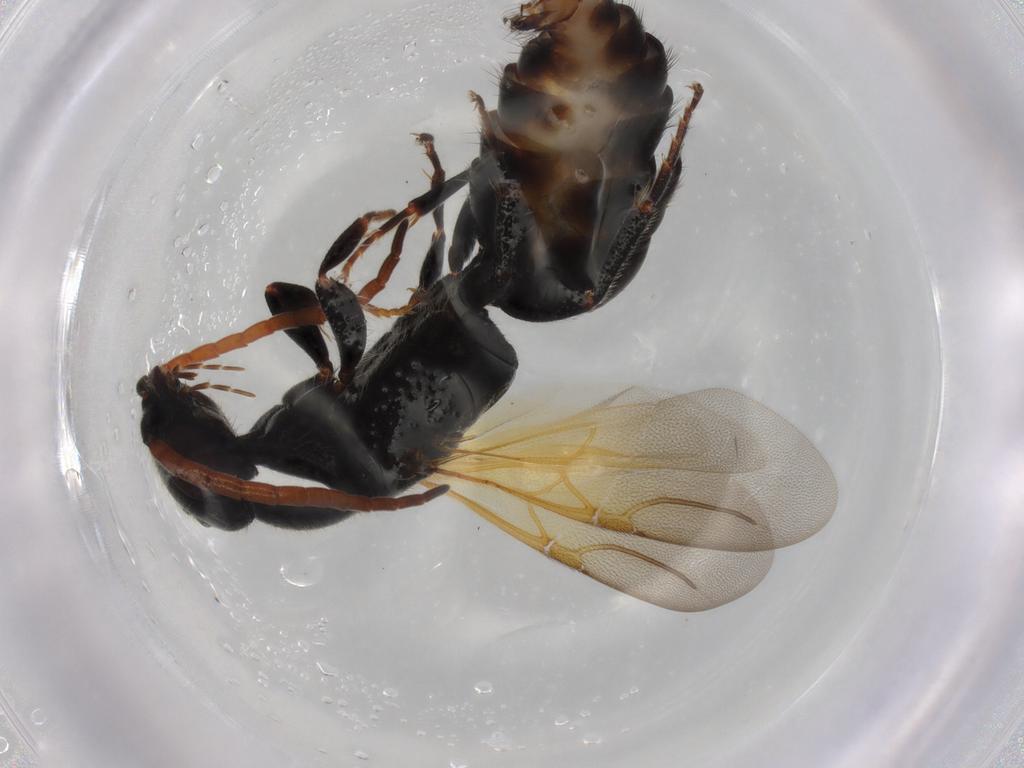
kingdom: Animalia
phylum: Arthropoda
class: Insecta
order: Hymenoptera
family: Bethylidae
